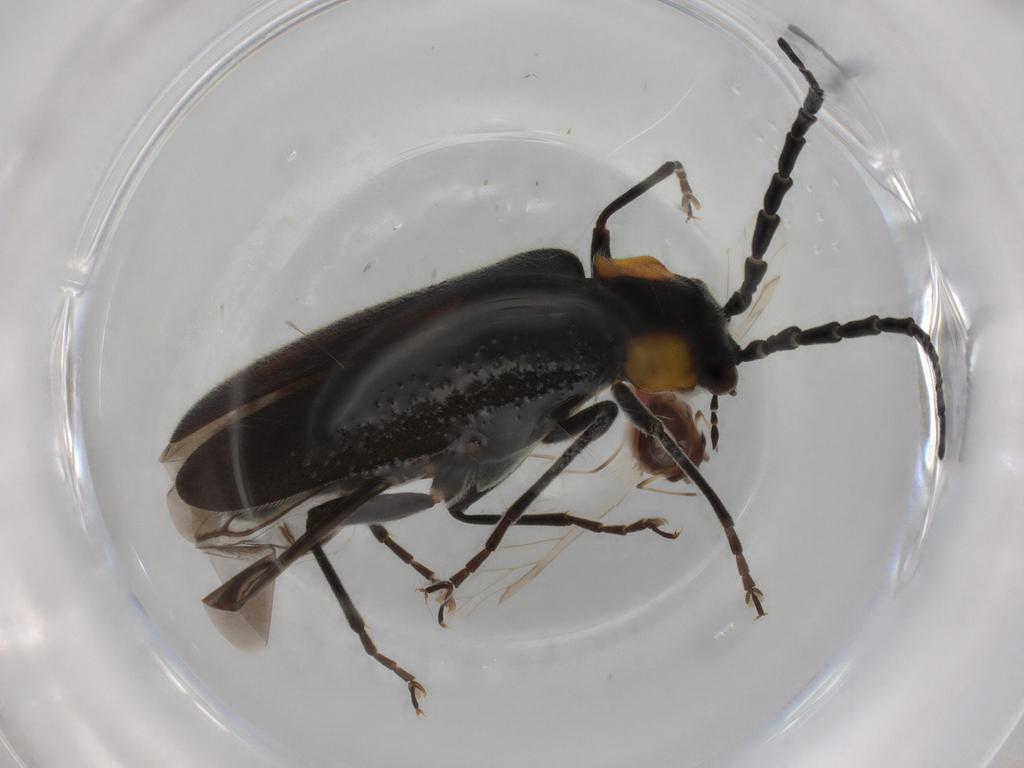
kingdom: Animalia
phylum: Arthropoda
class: Insecta
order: Coleoptera
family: Cantharidae
